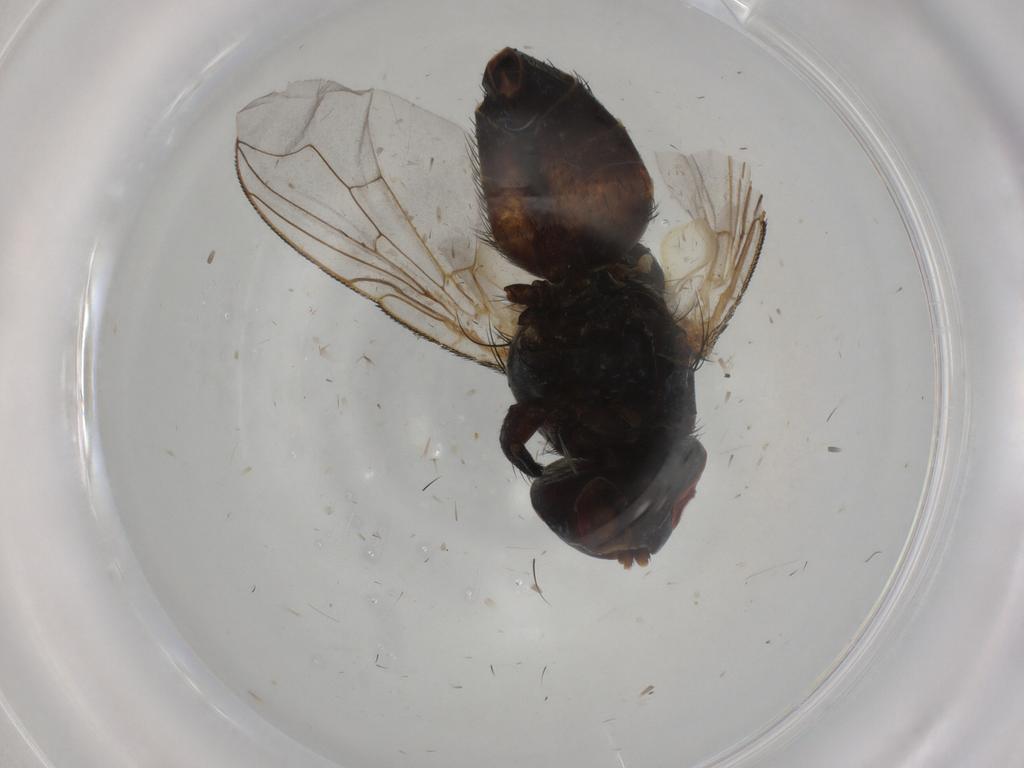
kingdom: Animalia
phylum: Arthropoda
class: Insecta
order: Diptera
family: Sarcophagidae
